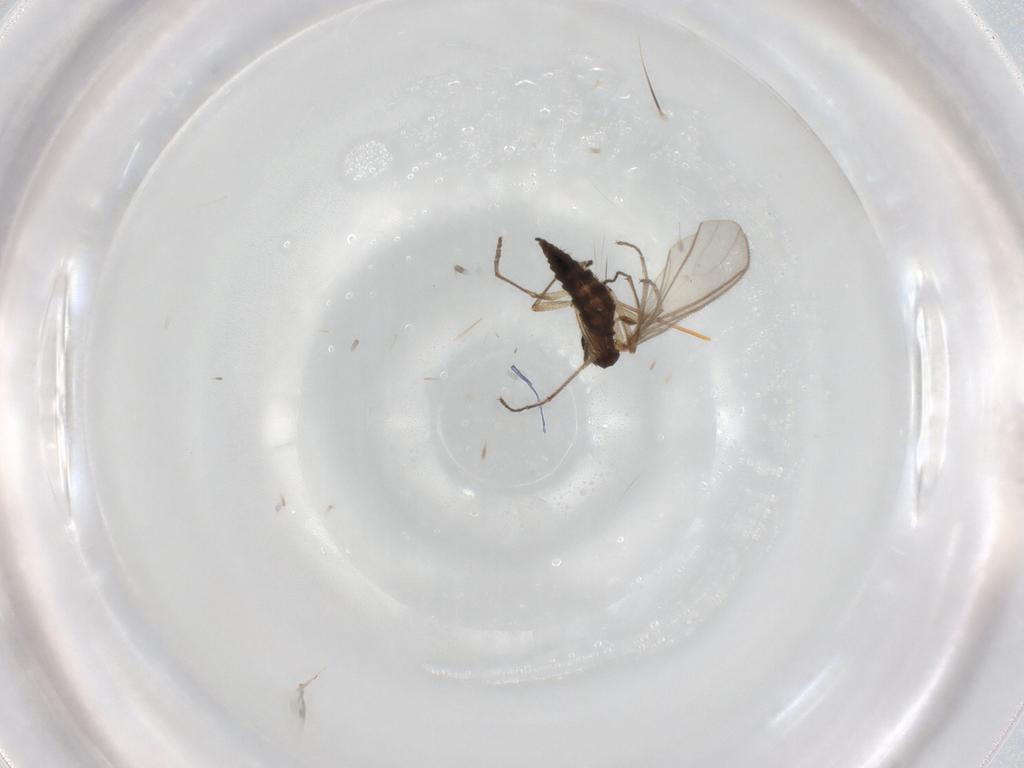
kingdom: Animalia
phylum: Arthropoda
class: Insecta
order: Diptera
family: Sciaridae
